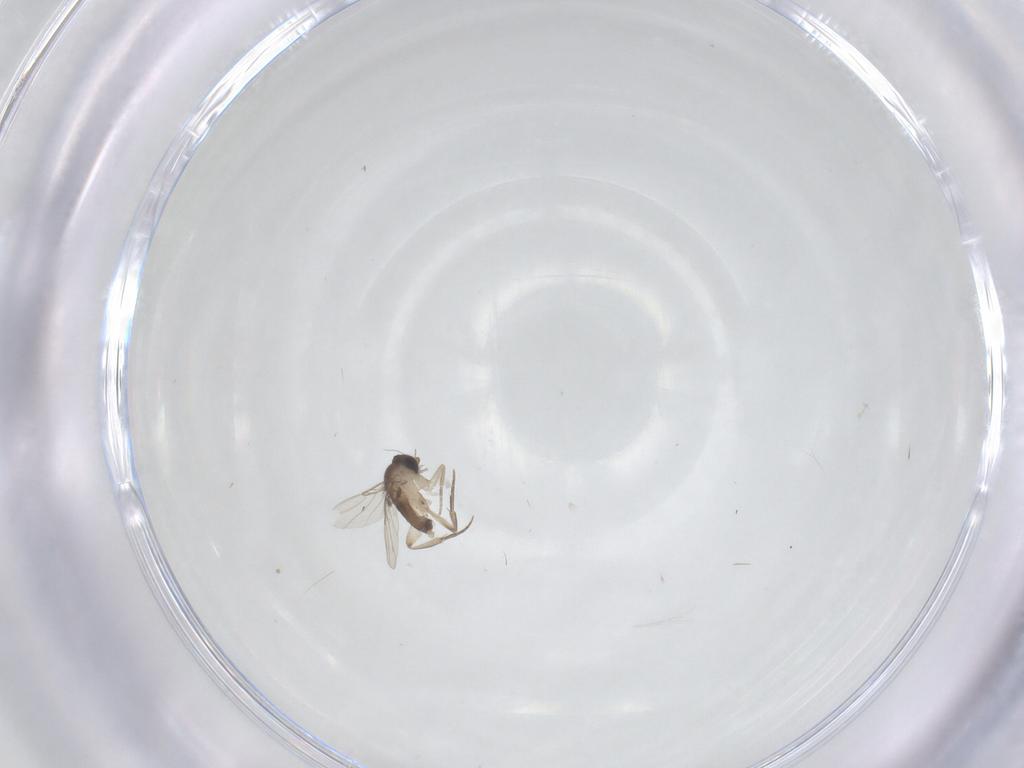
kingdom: Animalia
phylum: Arthropoda
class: Insecta
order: Diptera
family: Phoridae
